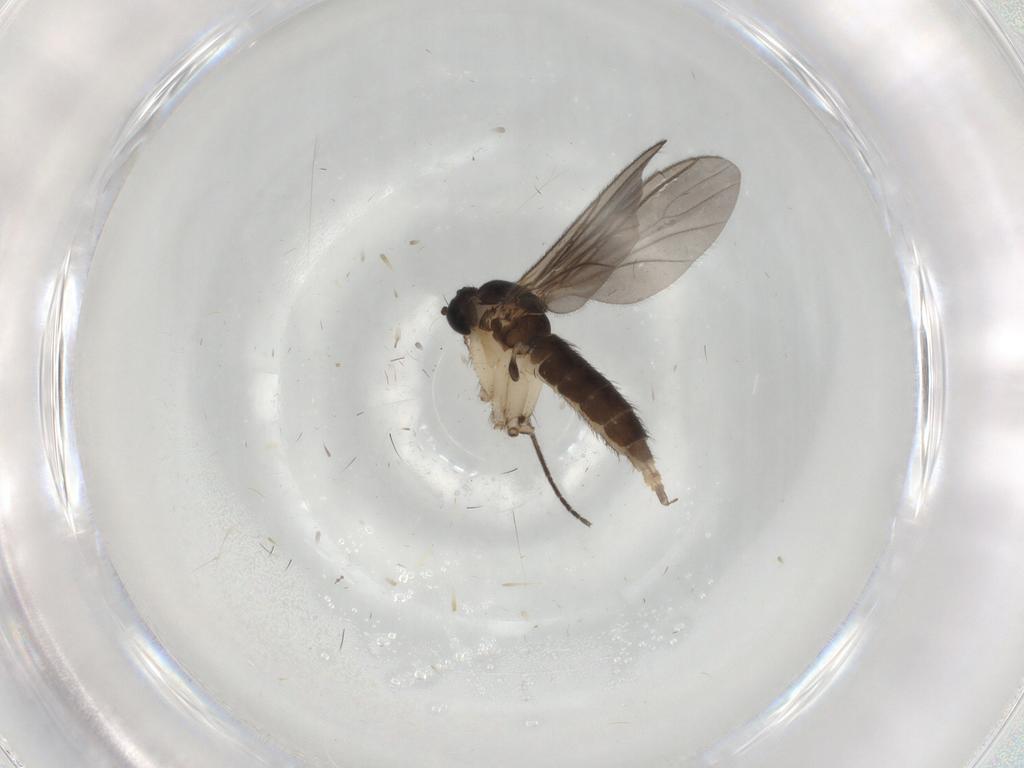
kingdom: Animalia
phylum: Arthropoda
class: Insecta
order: Diptera
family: Sciaridae
